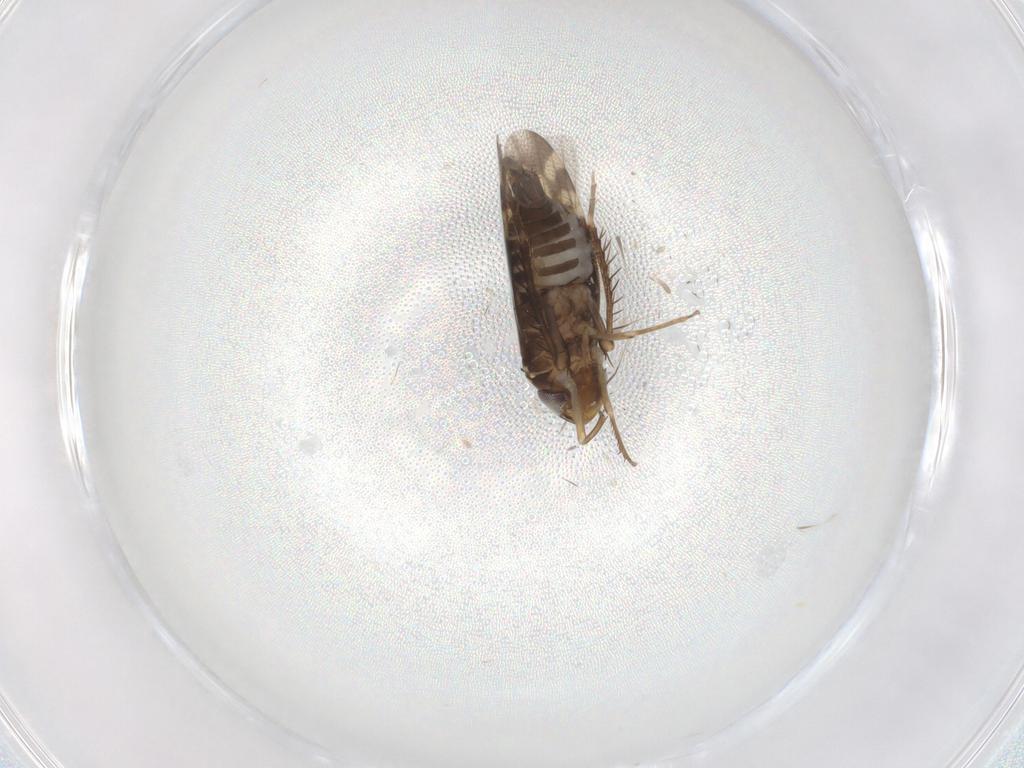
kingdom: Animalia
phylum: Arthropoda
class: Insecta
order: Hemiptera
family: Cicadellidae
